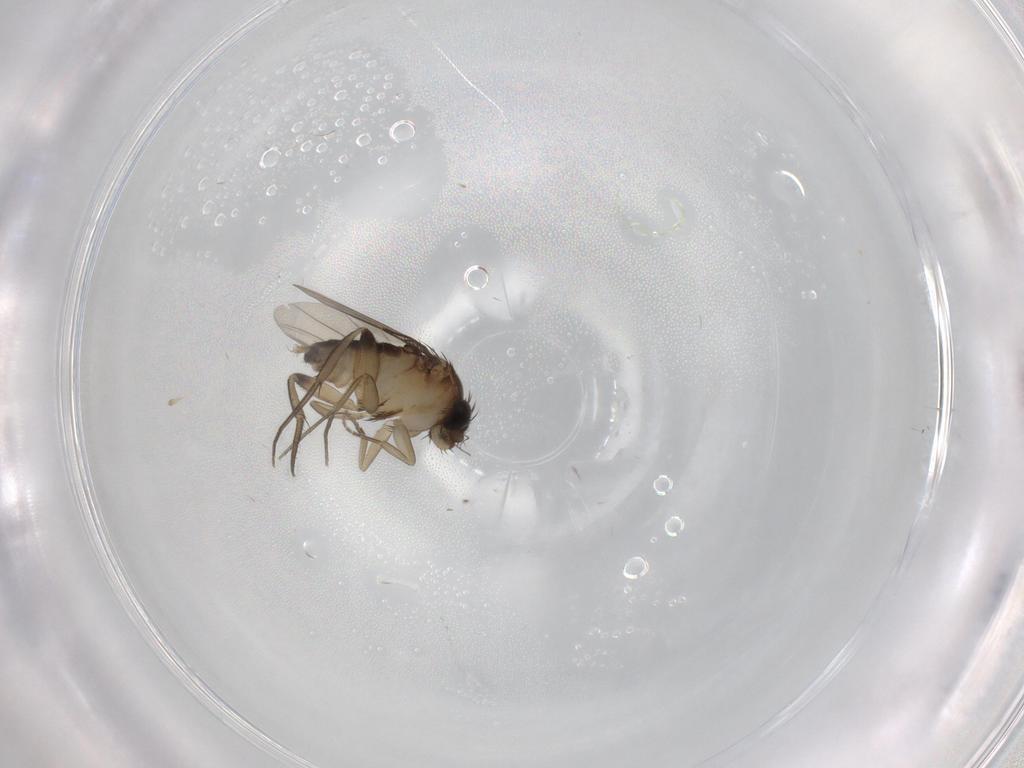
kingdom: Animalia
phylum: Arthropoda
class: Insecta
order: Diptera
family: Phoridae
